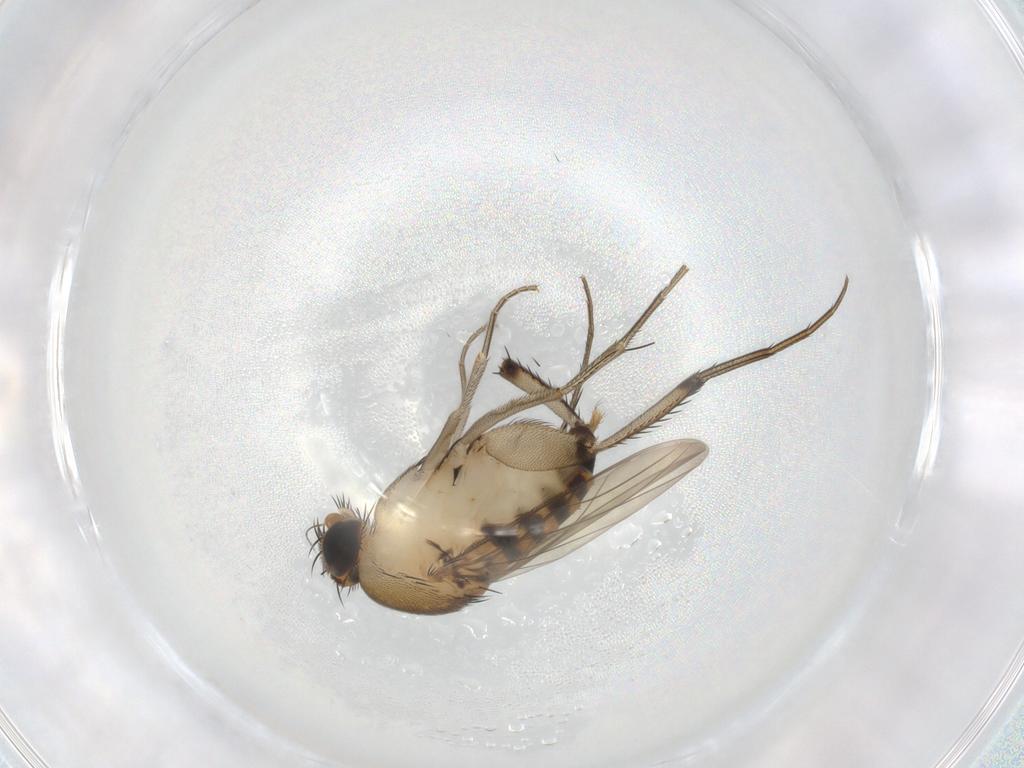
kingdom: Animalia
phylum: Arthropoda
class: Insecta
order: Diptera
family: Phoridae
